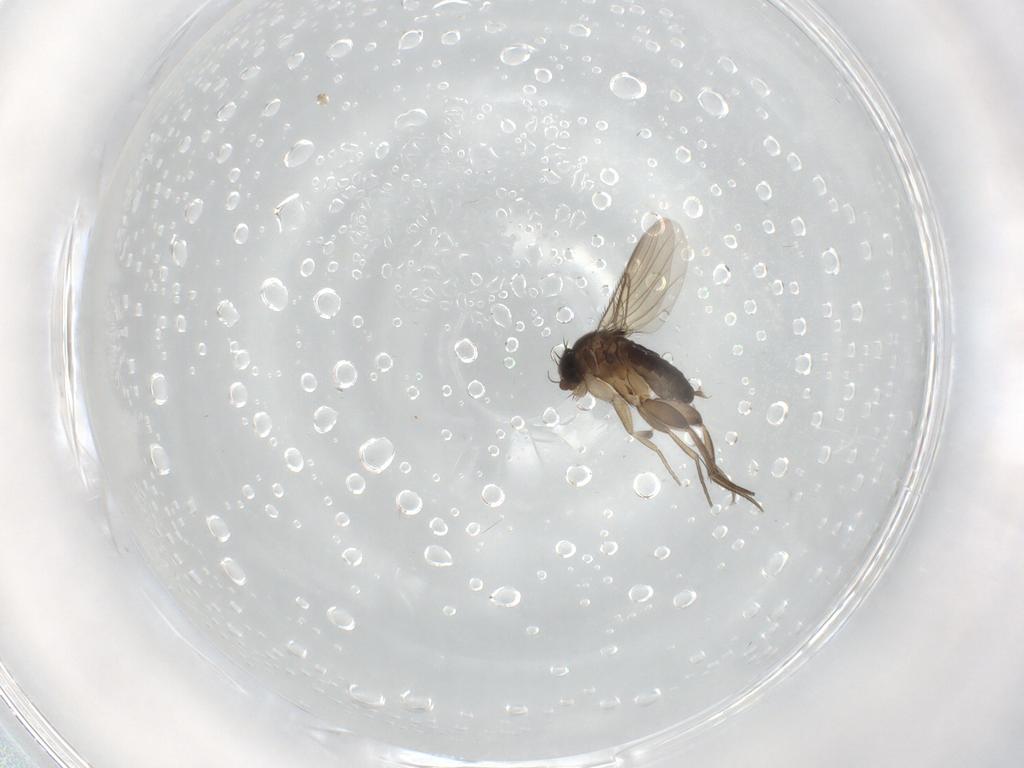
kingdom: Animalia
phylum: Arthropoda
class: Insecta
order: Diptera
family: Phoridae
